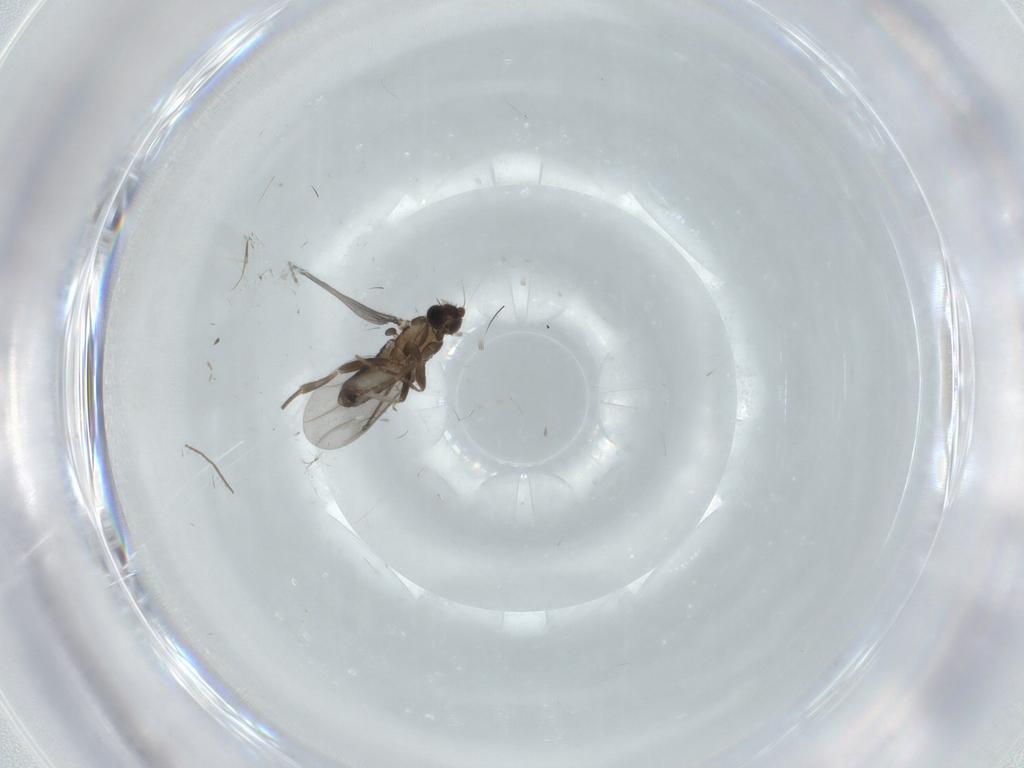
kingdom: Animalia
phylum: Arthropoda
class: Insecta
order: Diptera
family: Phoridae
